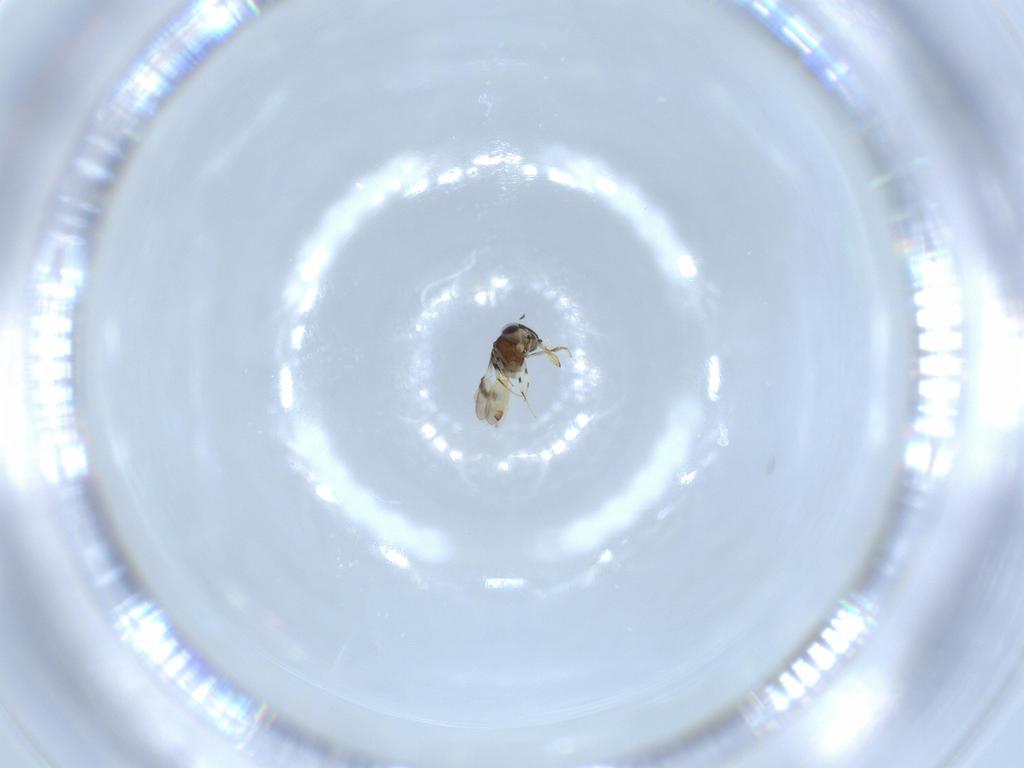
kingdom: Animalia
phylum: Arthropoda
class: Insecta
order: Hymenoptera
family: Scelionidae
